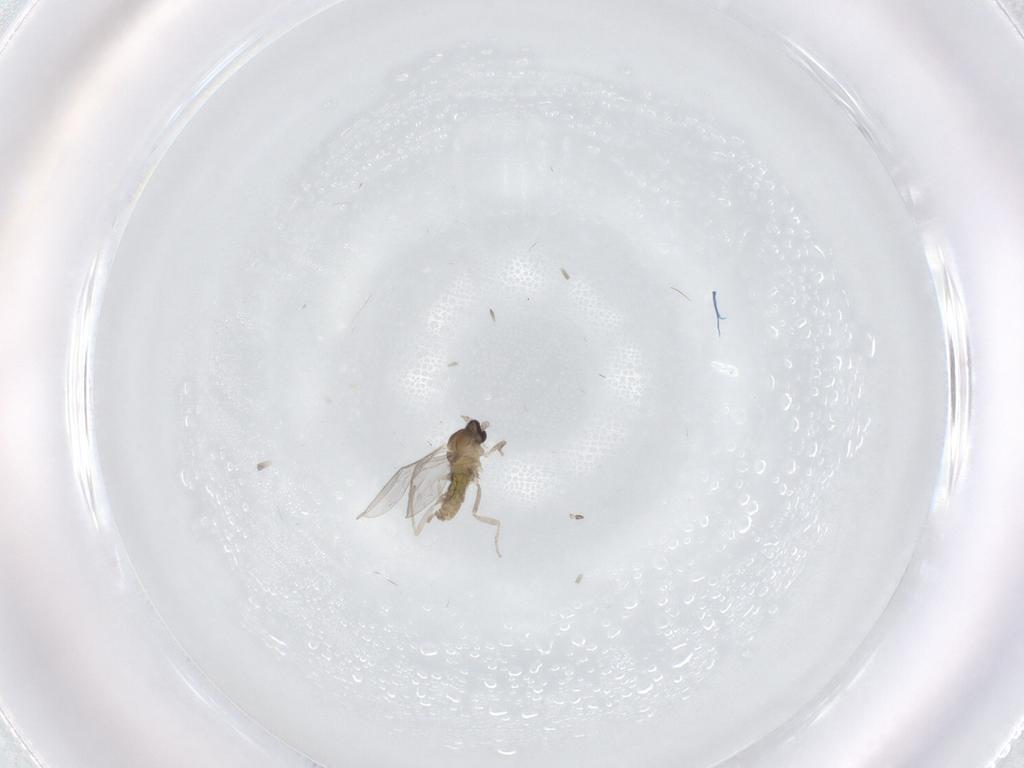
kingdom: Animalia
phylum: Arthropoda
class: Insecta
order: Diptera
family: Cecidomyiidae
